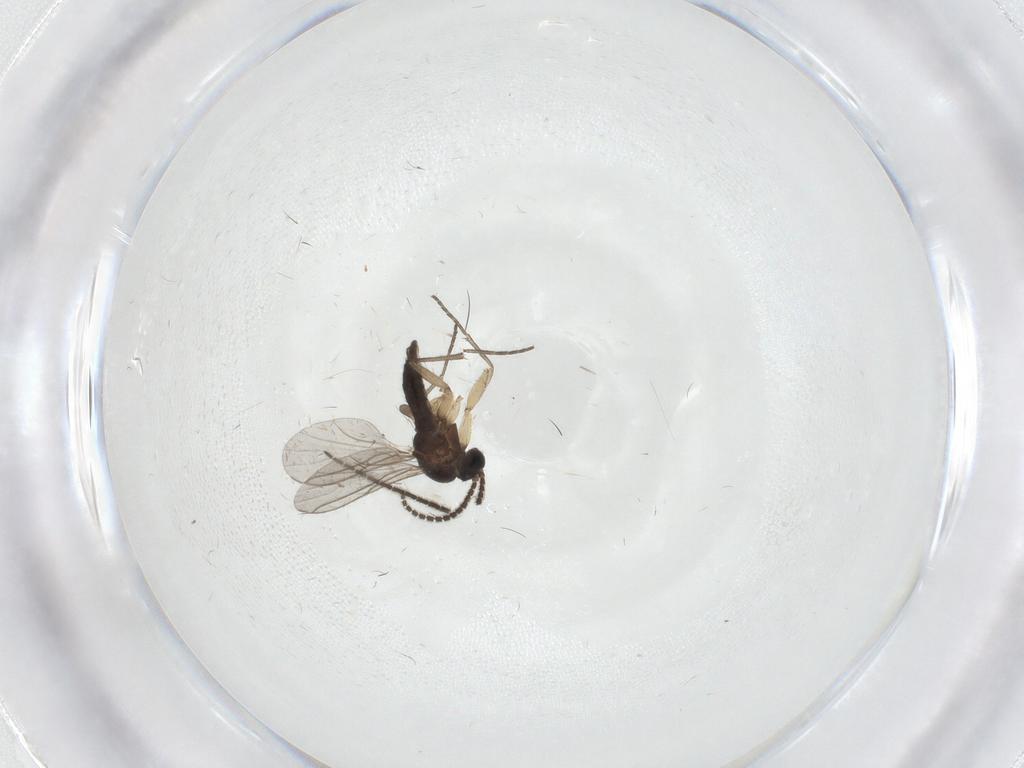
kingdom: Animalia
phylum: Arthropoda
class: Insecta
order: Diptera
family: Sciaridae
